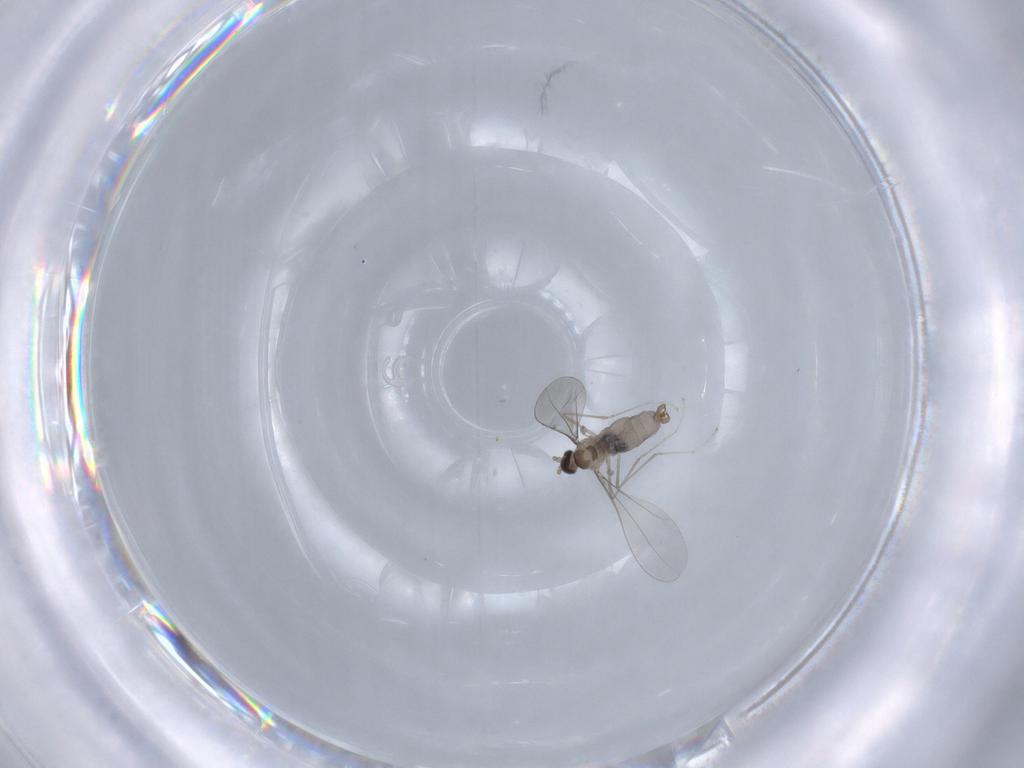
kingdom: Animalia
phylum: Arthropoda
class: Insecta
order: Diptera
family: Cecidomyiidae
